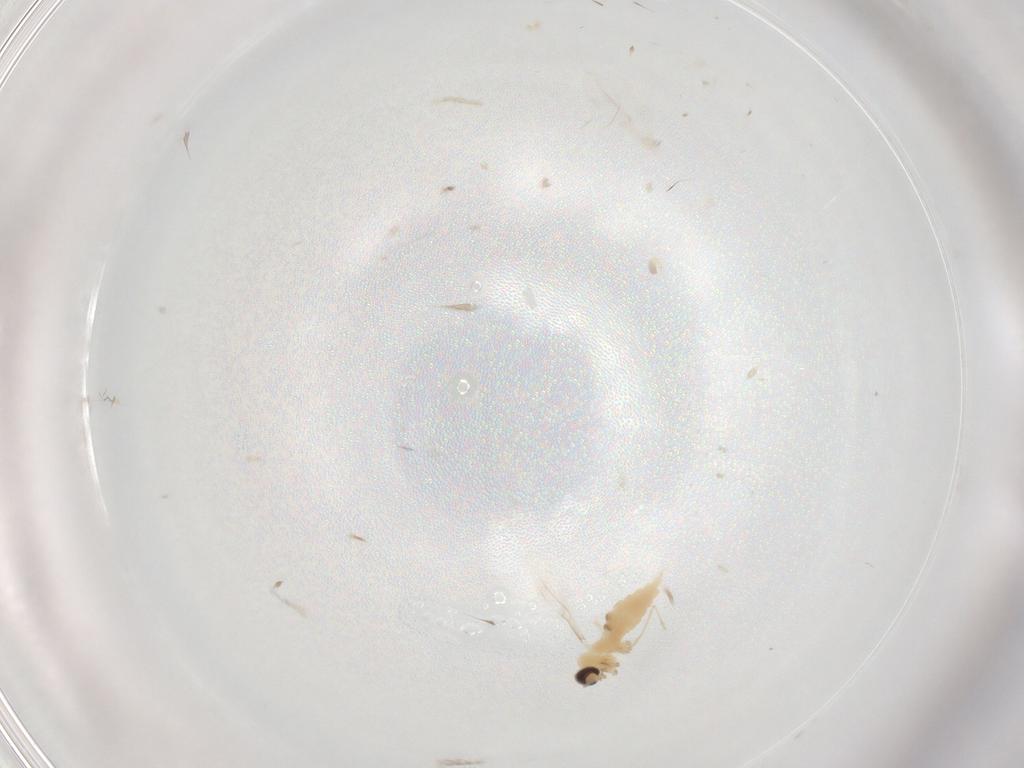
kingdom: Animalia
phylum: Arthropoda
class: Insecta
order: Diptera
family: Cecidomyiidae
